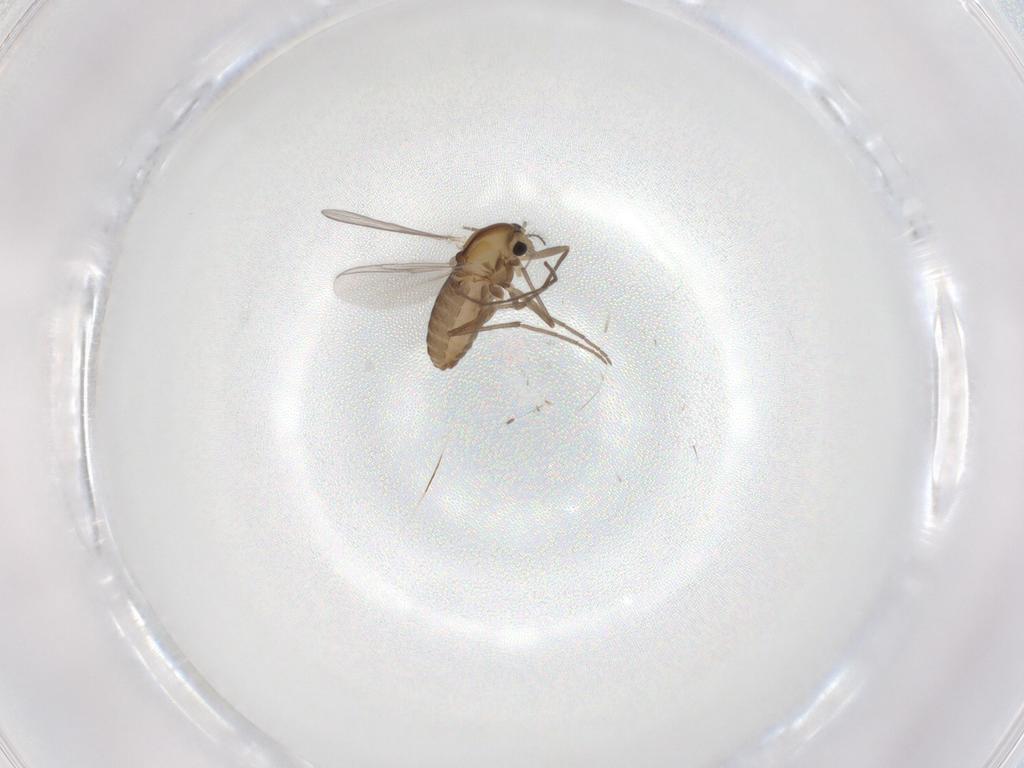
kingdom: Animalia
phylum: Arthropoda
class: Insecta
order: Diptera
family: Chironomidae
